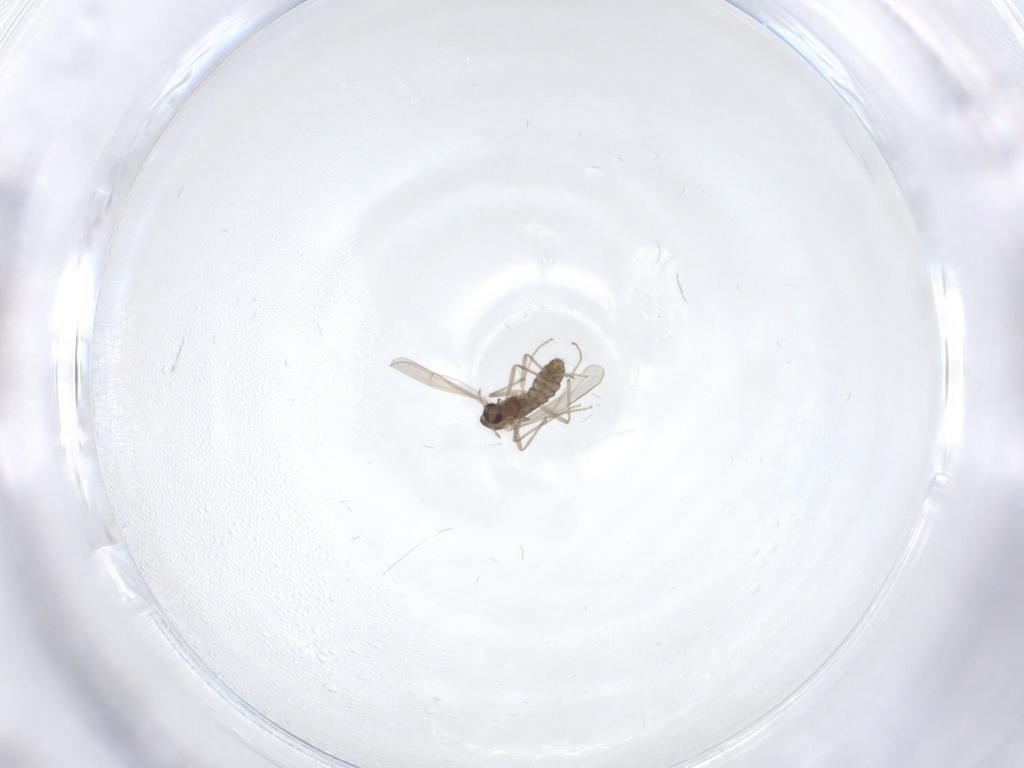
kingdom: Animalia
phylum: Arthropoda
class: Insecta
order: Diptera
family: Chironomidae
